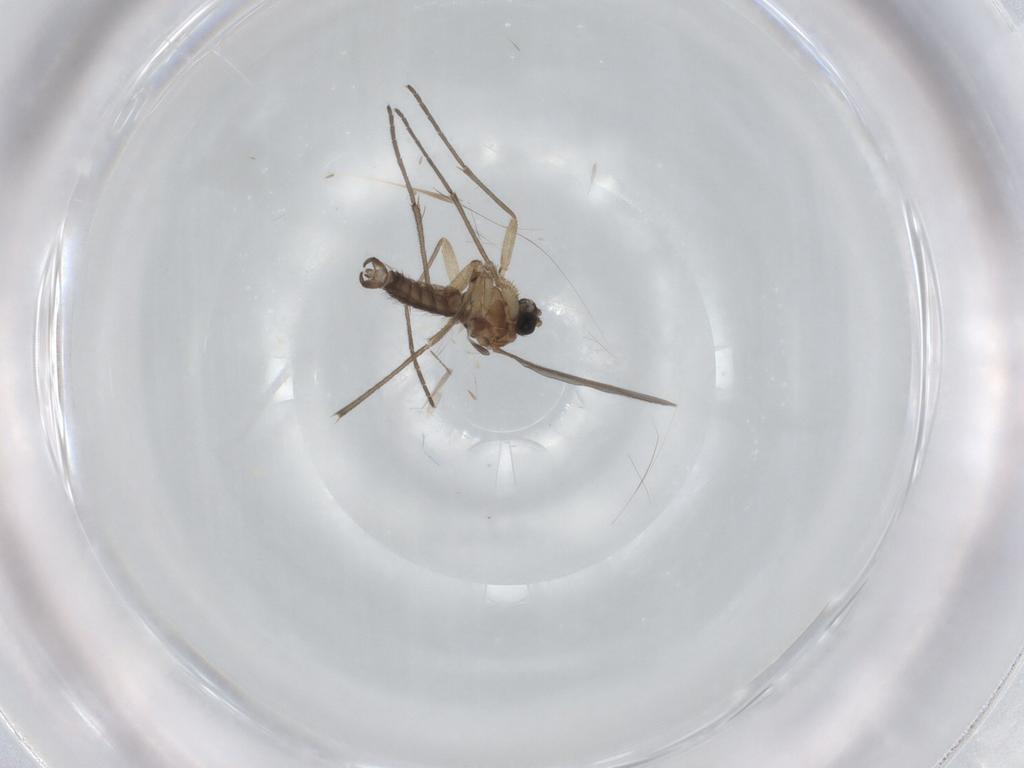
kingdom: Animalia
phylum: Arthropoda
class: Insecta
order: Diptera
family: Sciaridae
